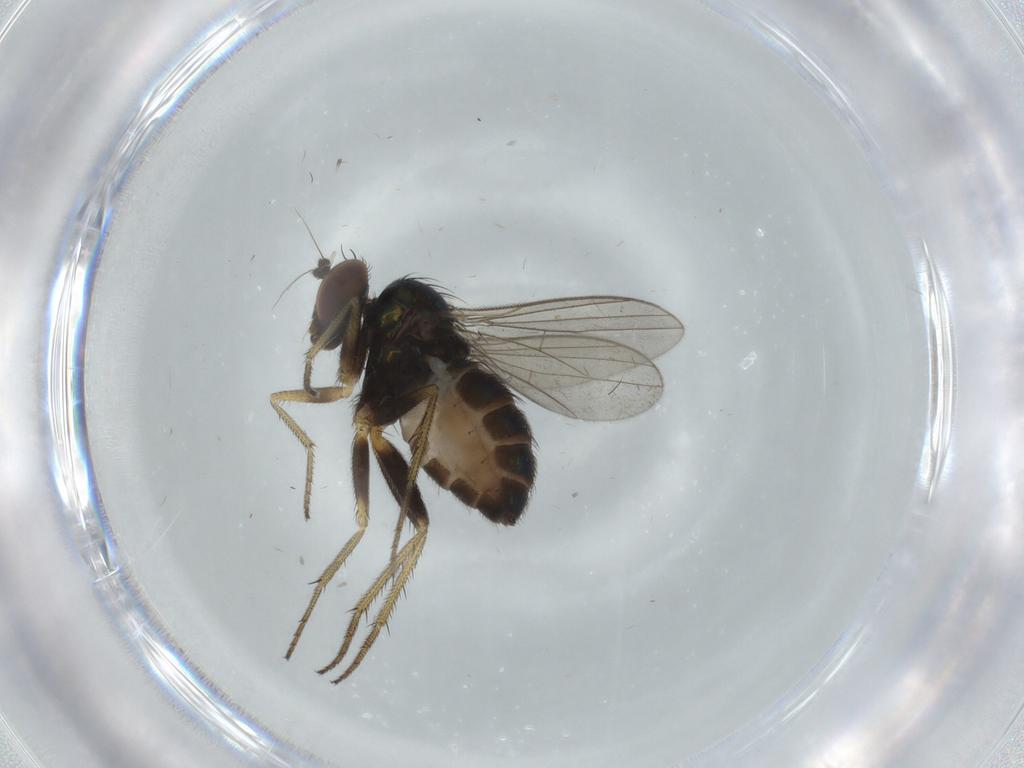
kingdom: Animalia
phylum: Arthropoda
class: Insecta
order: Diptera
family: Dolichopodidae
